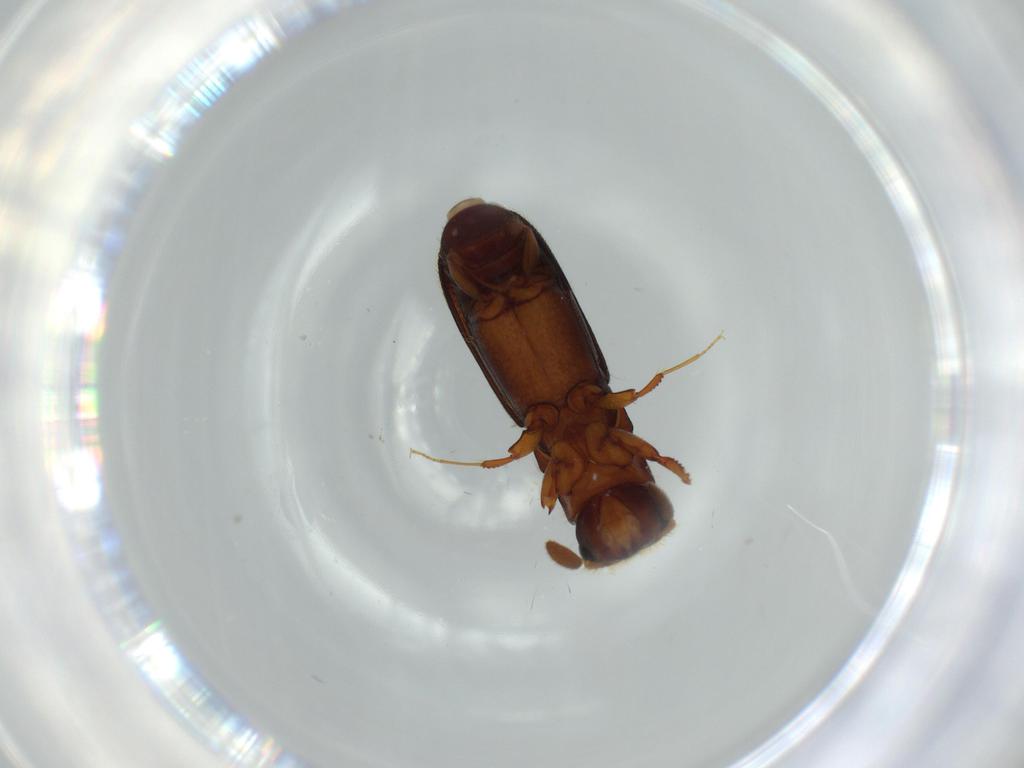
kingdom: Animalia
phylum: Arthropoda
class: Insecta
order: Coleoptera
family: Curculionidae
